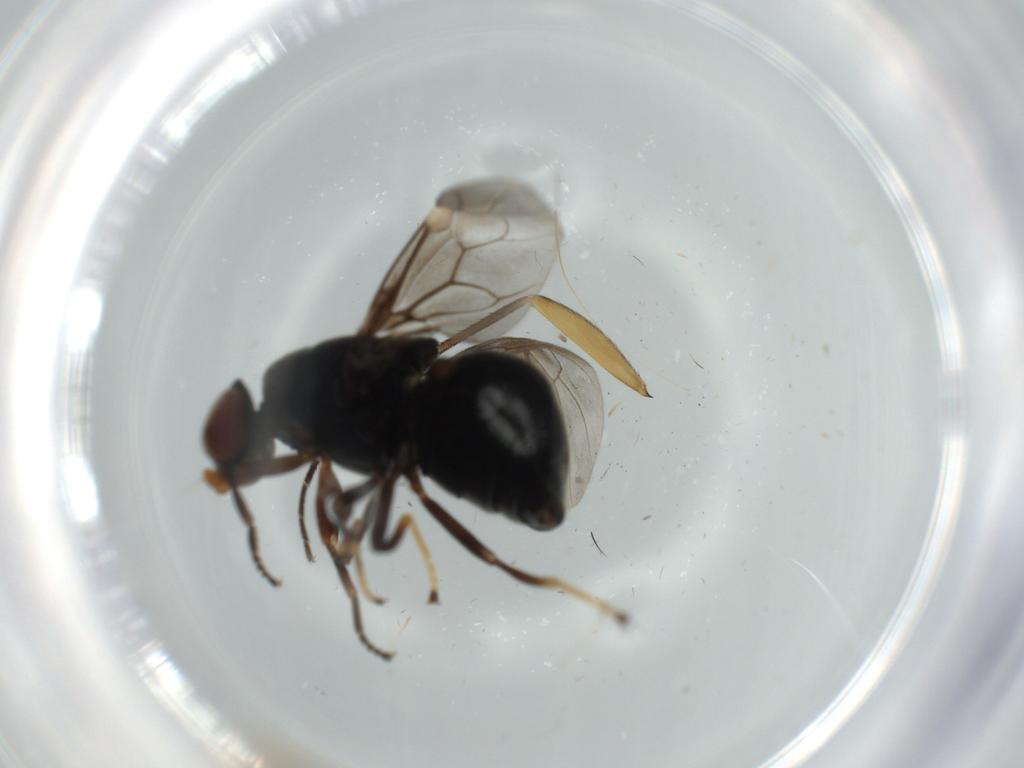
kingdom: Animalia
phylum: Arthropoda
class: Insecta
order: Diptera
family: Stratiomyidae
